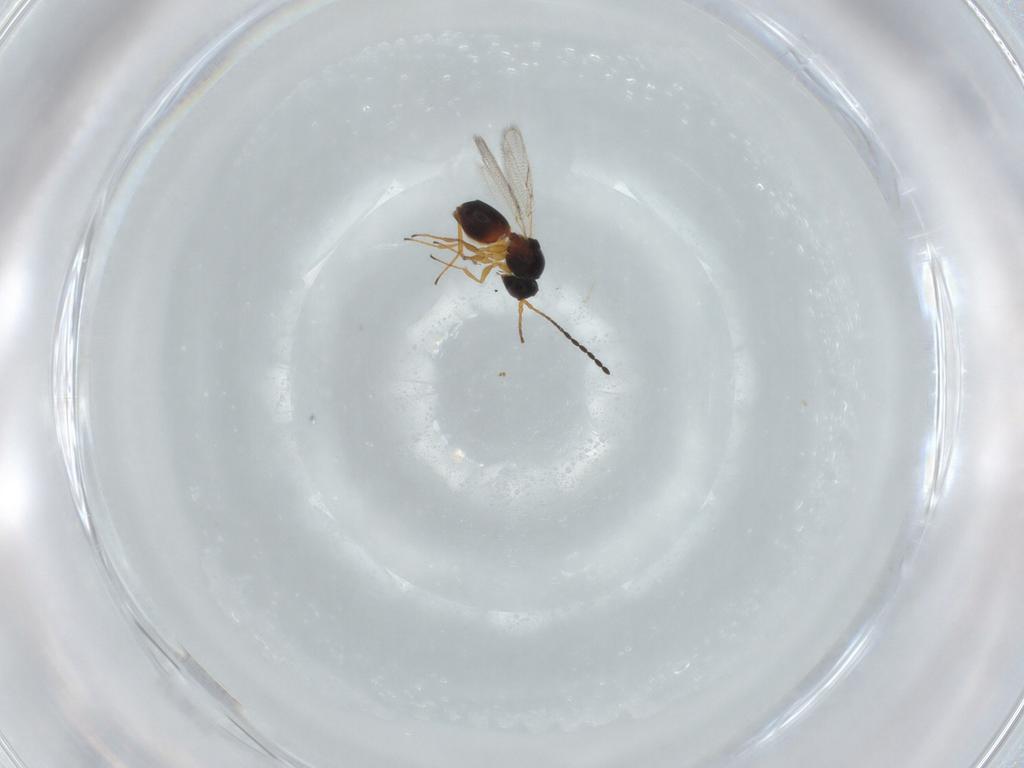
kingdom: Animalia
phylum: Arthropoda
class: Insecta
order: Hymenoptera
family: Figitidae
